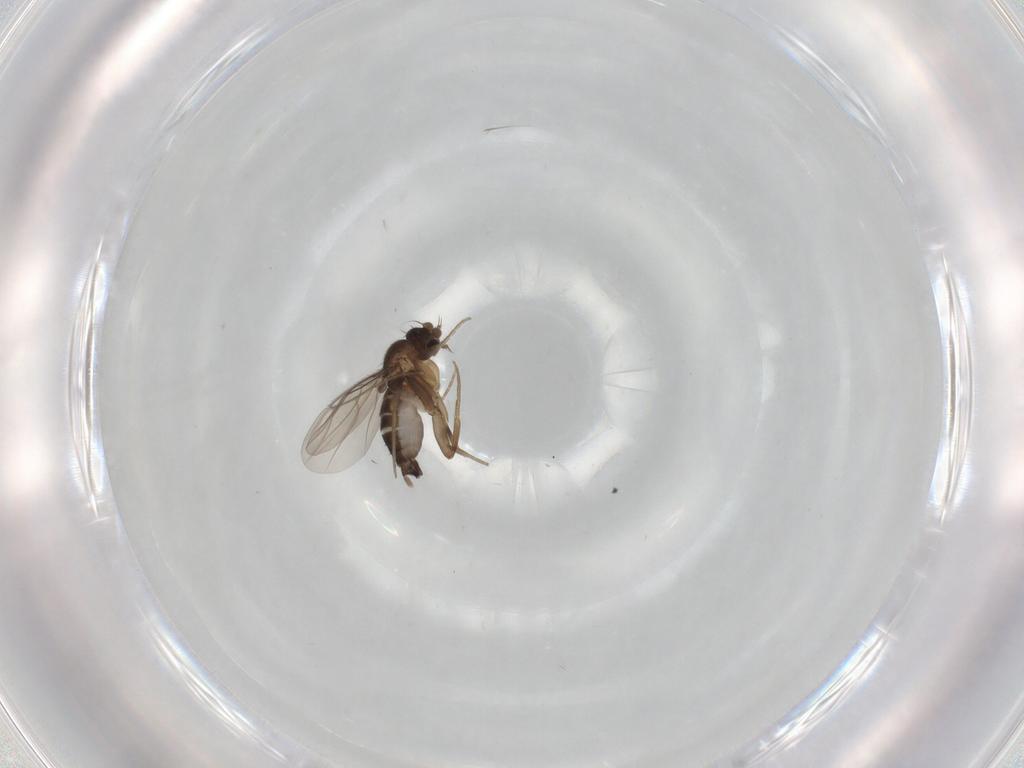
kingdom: Animalia
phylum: Arthropoda
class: Insecta
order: Diptera
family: Phoridae
